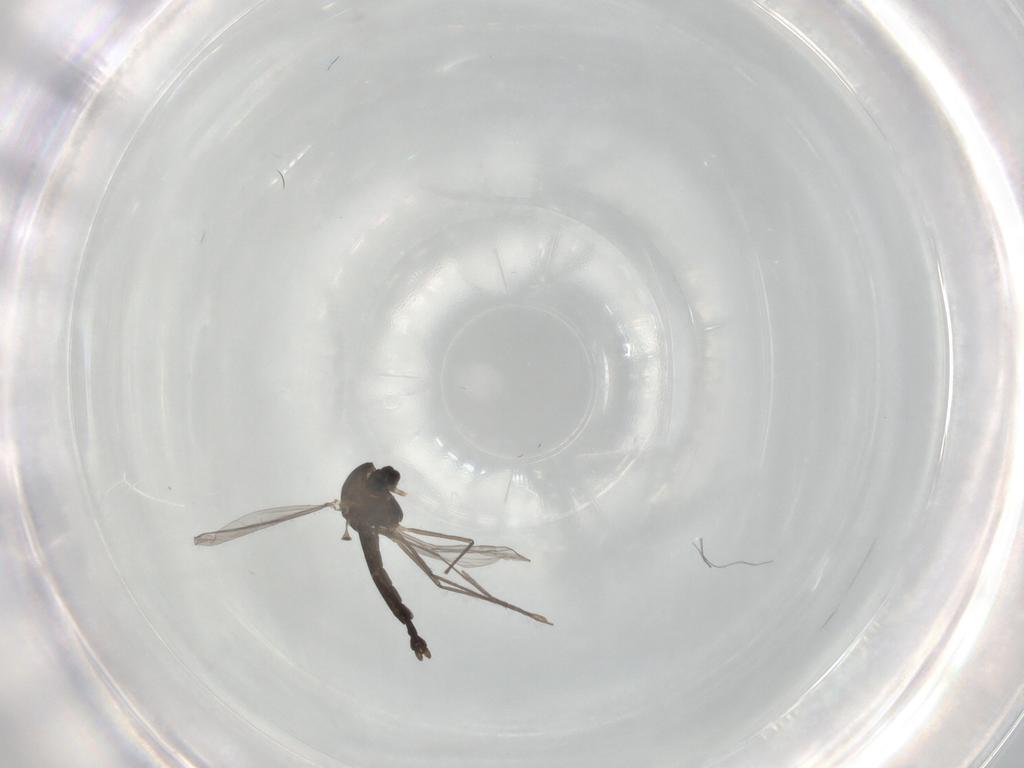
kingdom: Animalia
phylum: Arthropoda
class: Insecta
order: Diptera
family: Chironomidae
